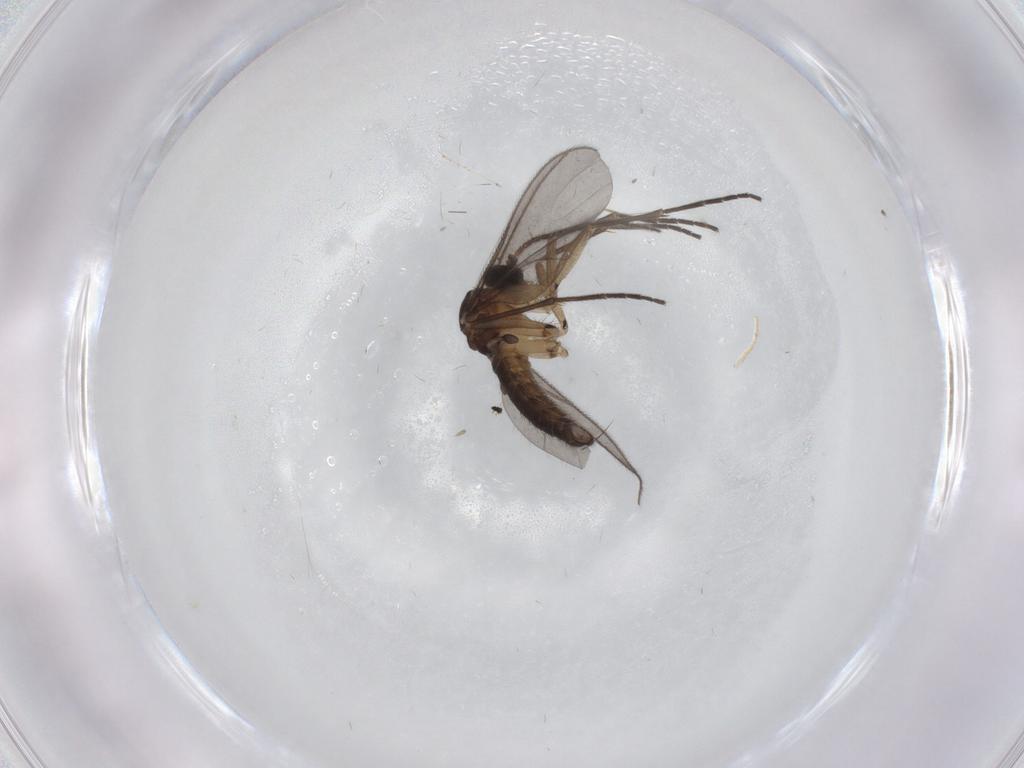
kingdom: Animalia
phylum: Arthropoda
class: Insecta
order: Diptera
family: Sciaridae
